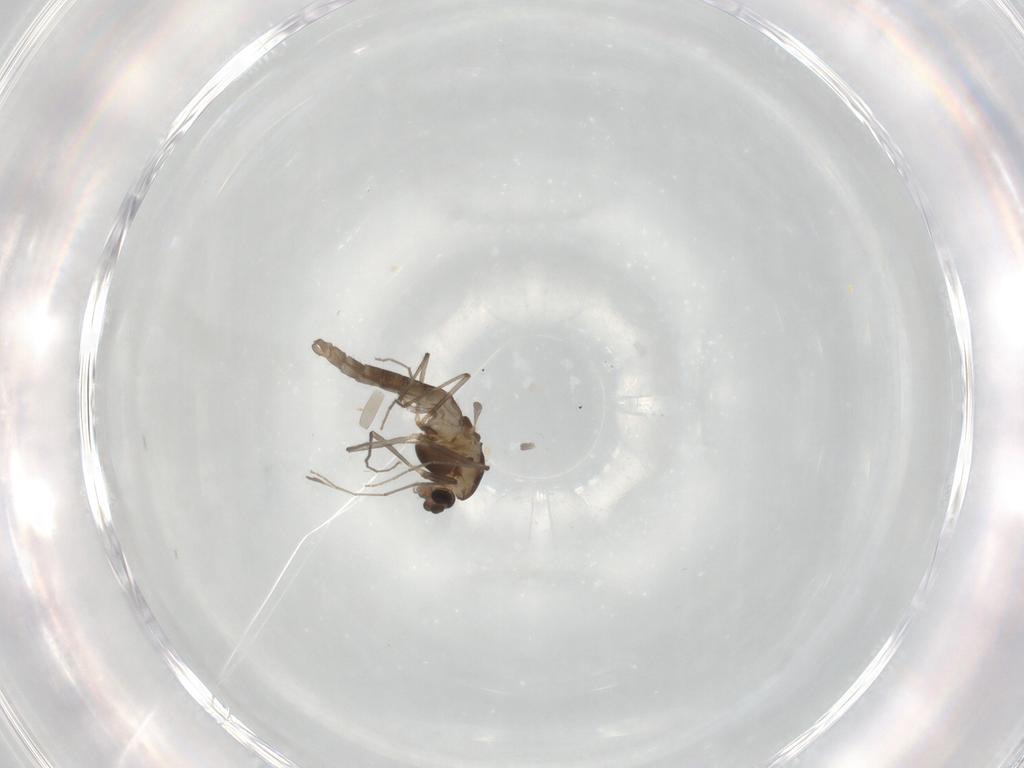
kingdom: Animalia
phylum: Arthropoda
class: Insecta
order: Diptera
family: Chironomidae
